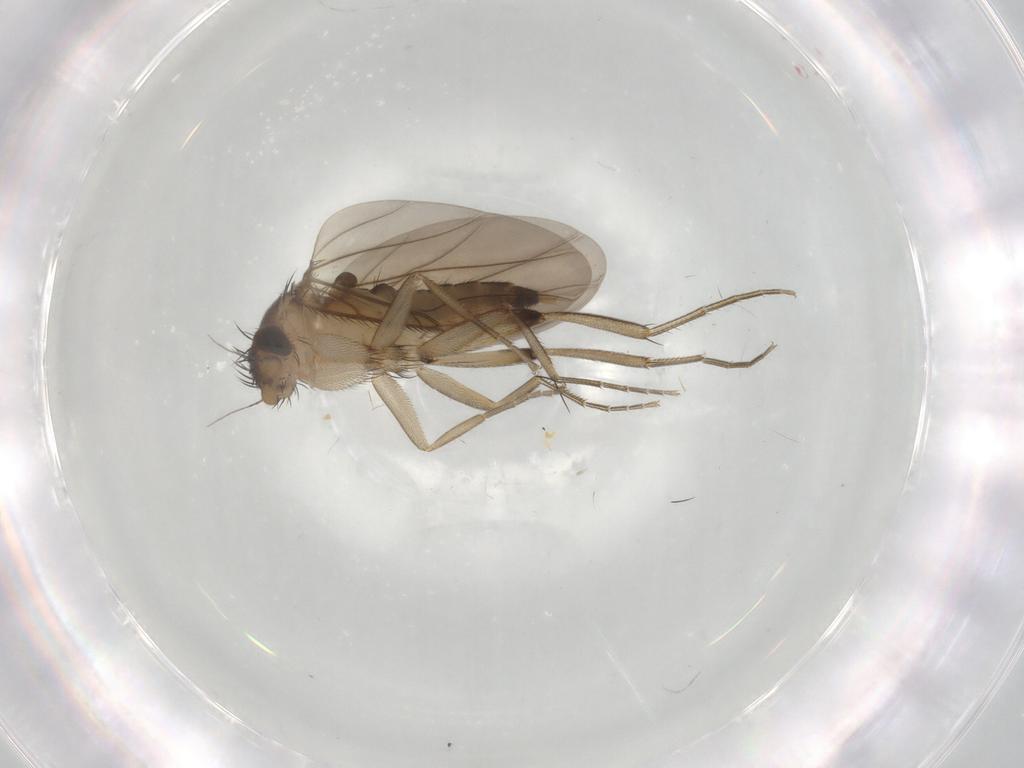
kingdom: Animalia
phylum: Arthropoda
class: Insecta
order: Diptera
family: Phoridae
